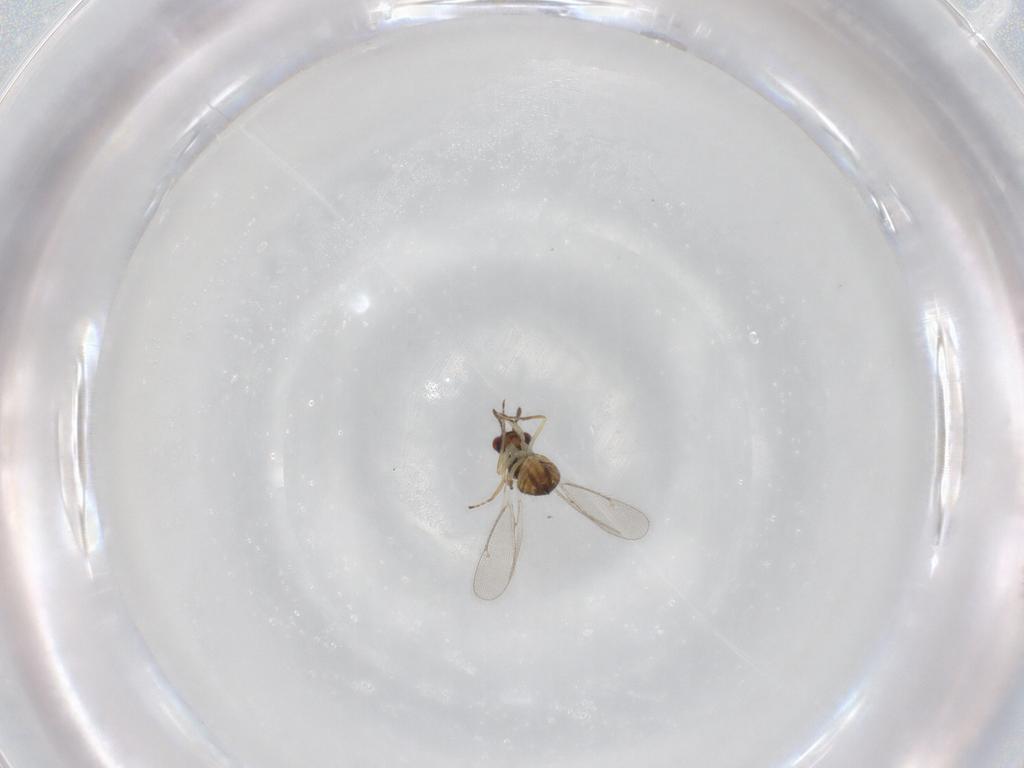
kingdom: Animalia
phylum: Arthropoda
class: Insecta
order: Hymenoptera
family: Eulophidae
